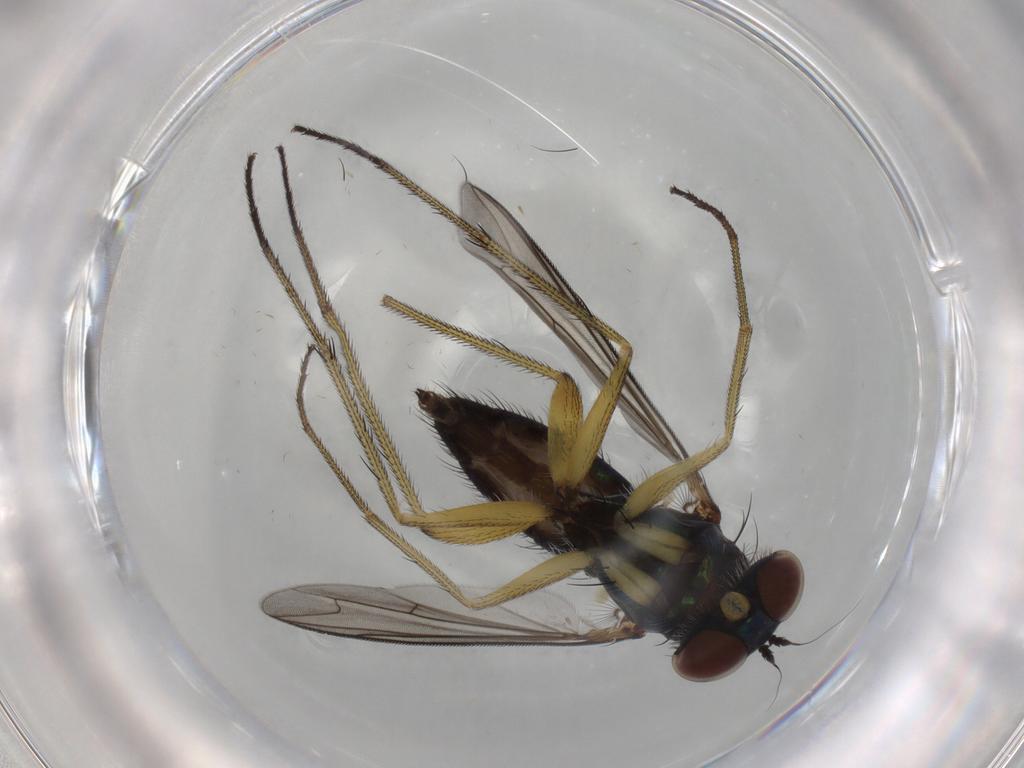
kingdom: Animalia
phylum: Arthropoda
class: Insecta
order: Diptera
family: Dolichopodidae
